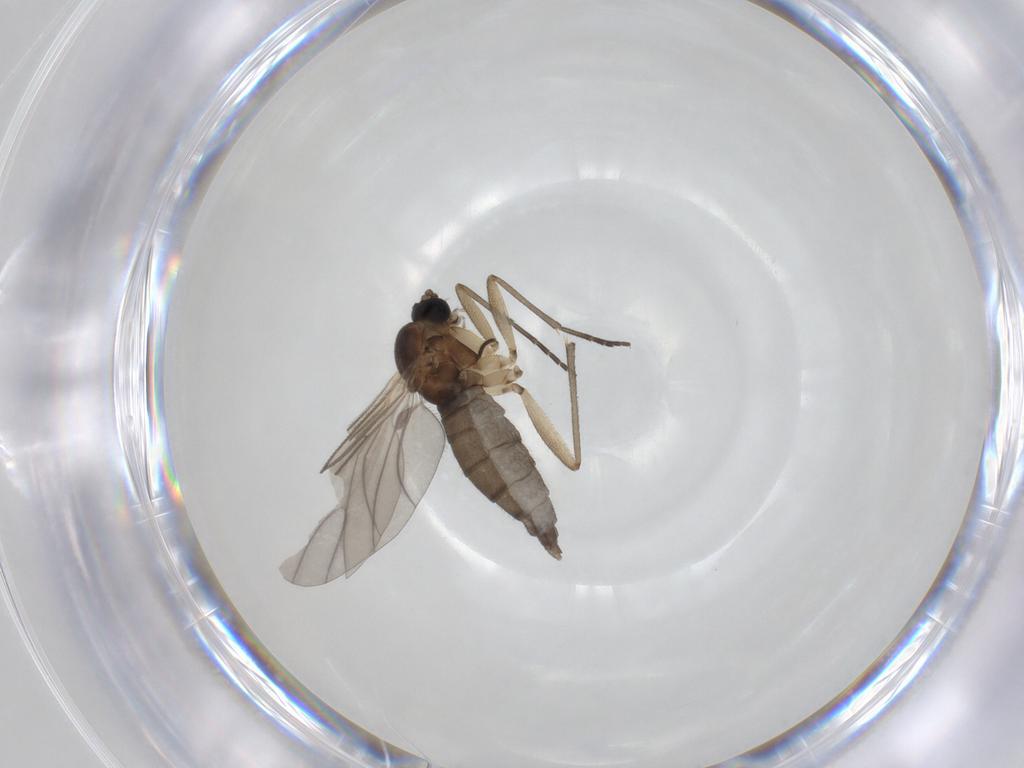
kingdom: Animalia
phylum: Arthropoda
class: Insecta
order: Diptera
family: Sciaridae
